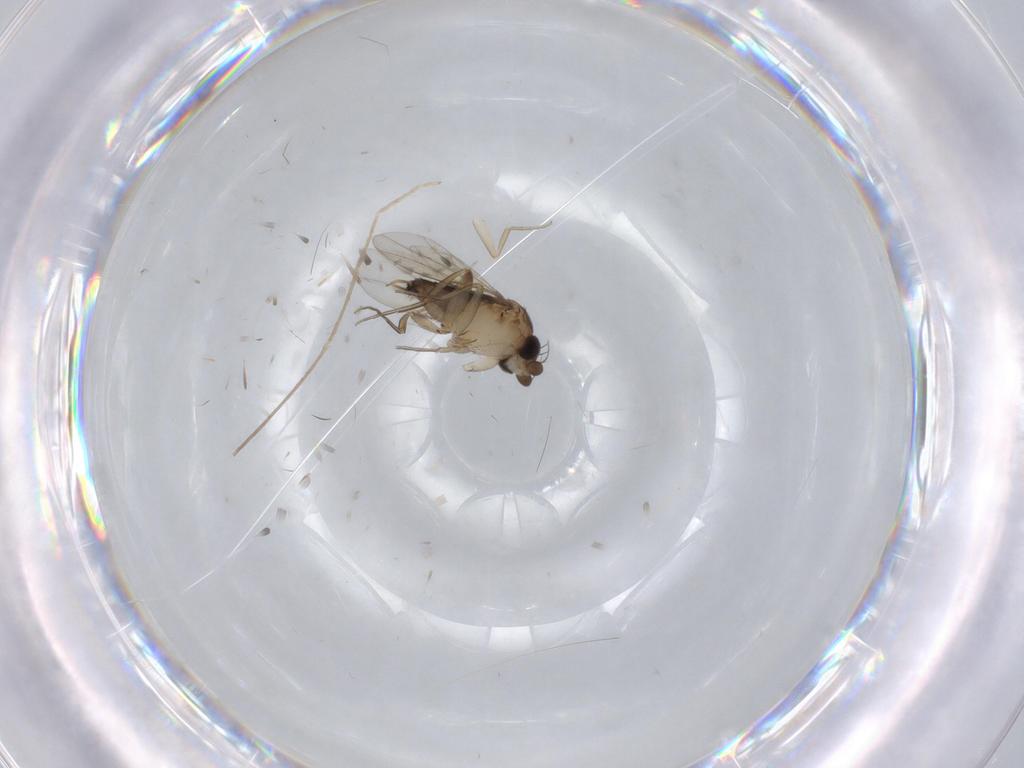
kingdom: Animalia
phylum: Arthropoda
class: Insecta
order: Diptera
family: Phoridae
